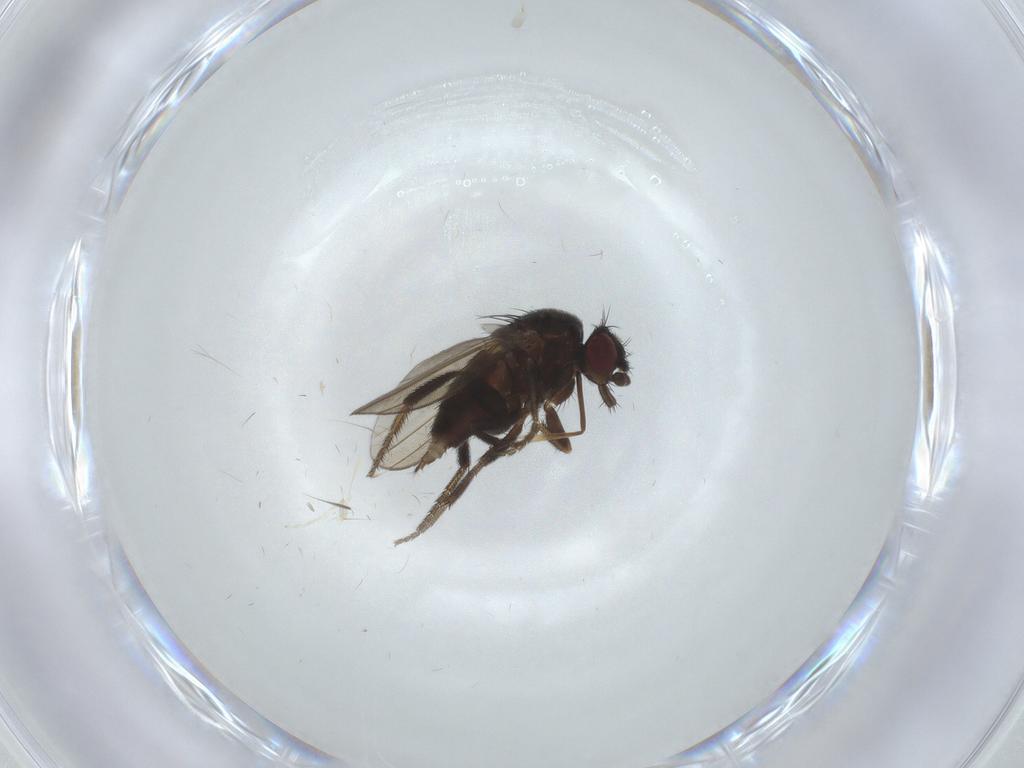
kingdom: Animalia
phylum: Arthropoda
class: Insecta
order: Diptera
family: Milichiidae
